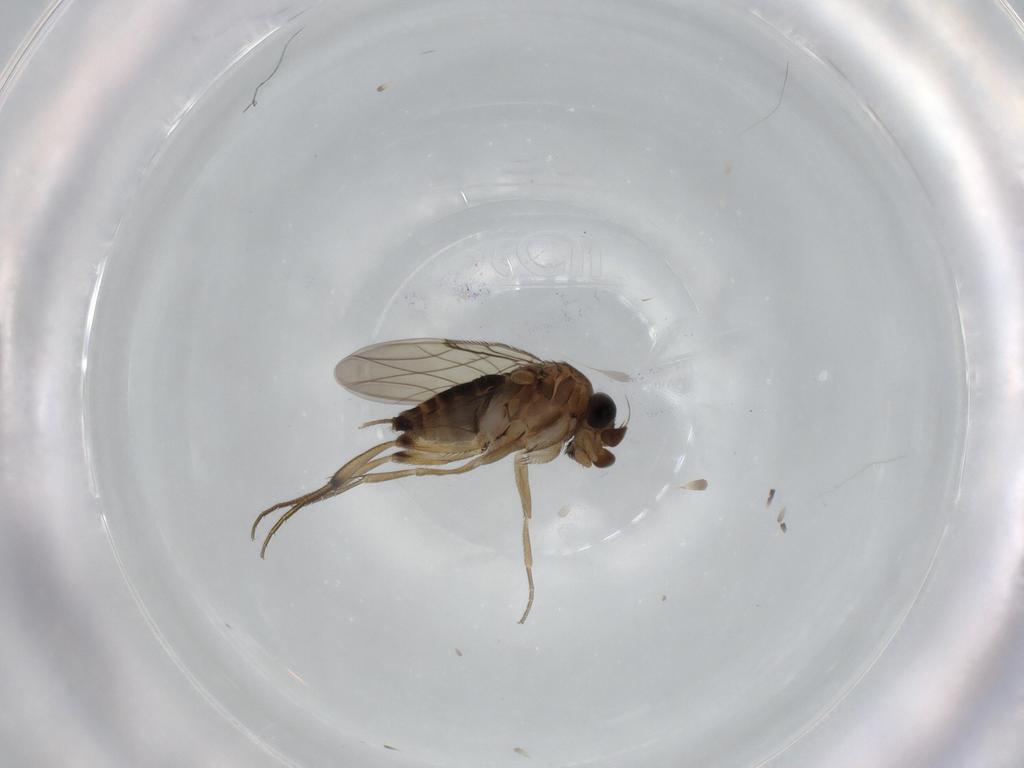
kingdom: Animalia
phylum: Arthropoda
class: Insecta
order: Diptera
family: Phoridae
